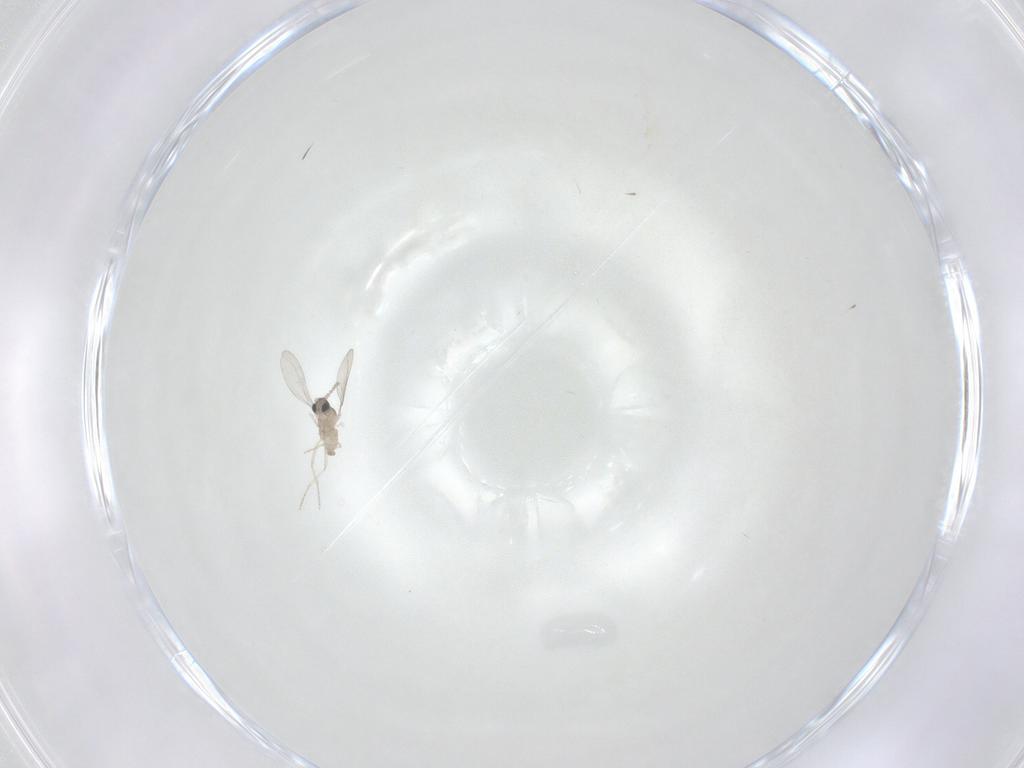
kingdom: Animalia
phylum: Arthropoda
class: Insecta
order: Diptera
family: Cecidomyiidae
